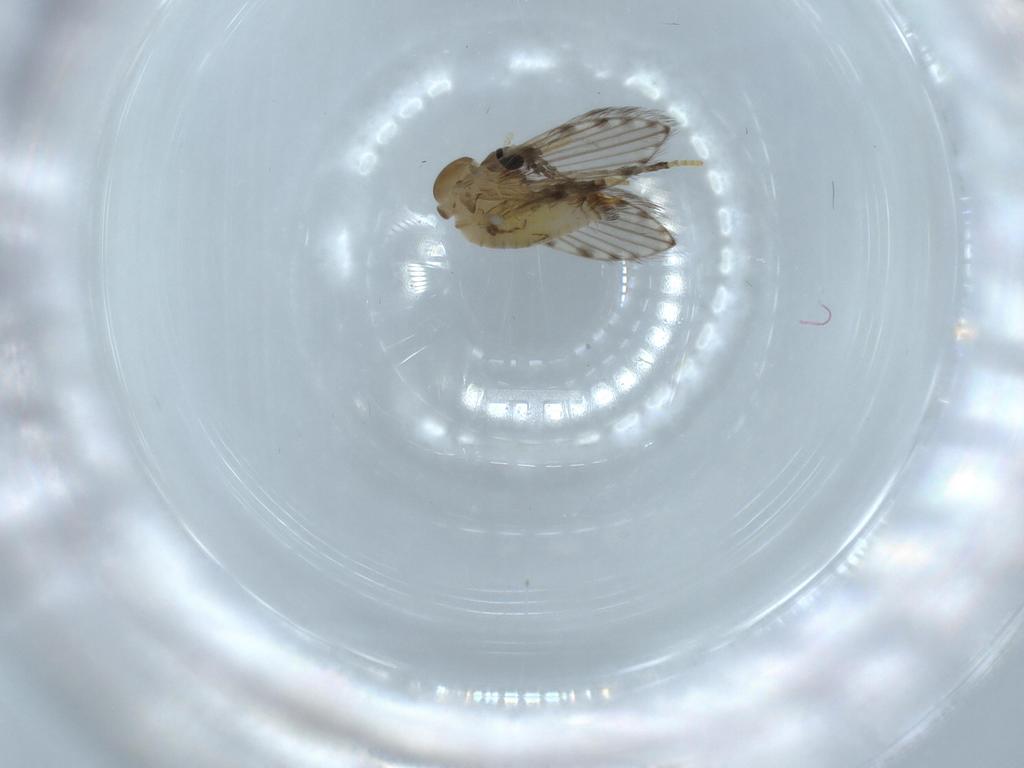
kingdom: Animalia
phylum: Arthropoda
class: Insecta
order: Diptera
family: Psychodidae
